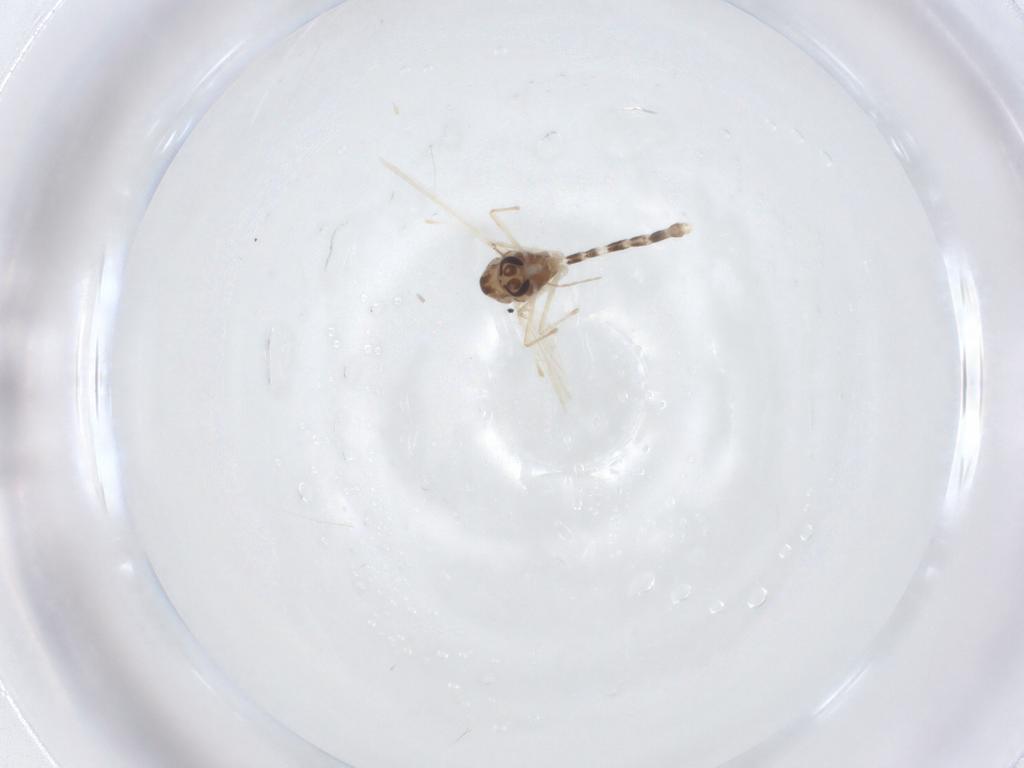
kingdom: Animalia
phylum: Arthropoda
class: Insecta
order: Diptera
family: Chironomidae
